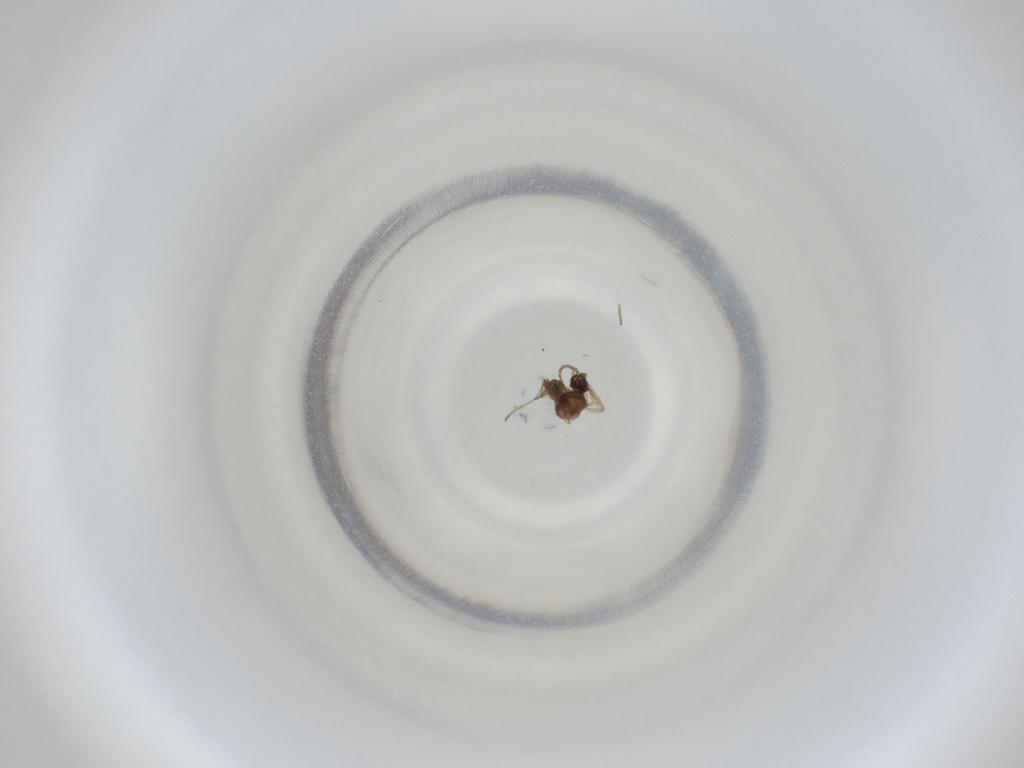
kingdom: Animalia
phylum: Arthropoda
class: Insecta
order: Diptera
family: Cecidomyiidae
